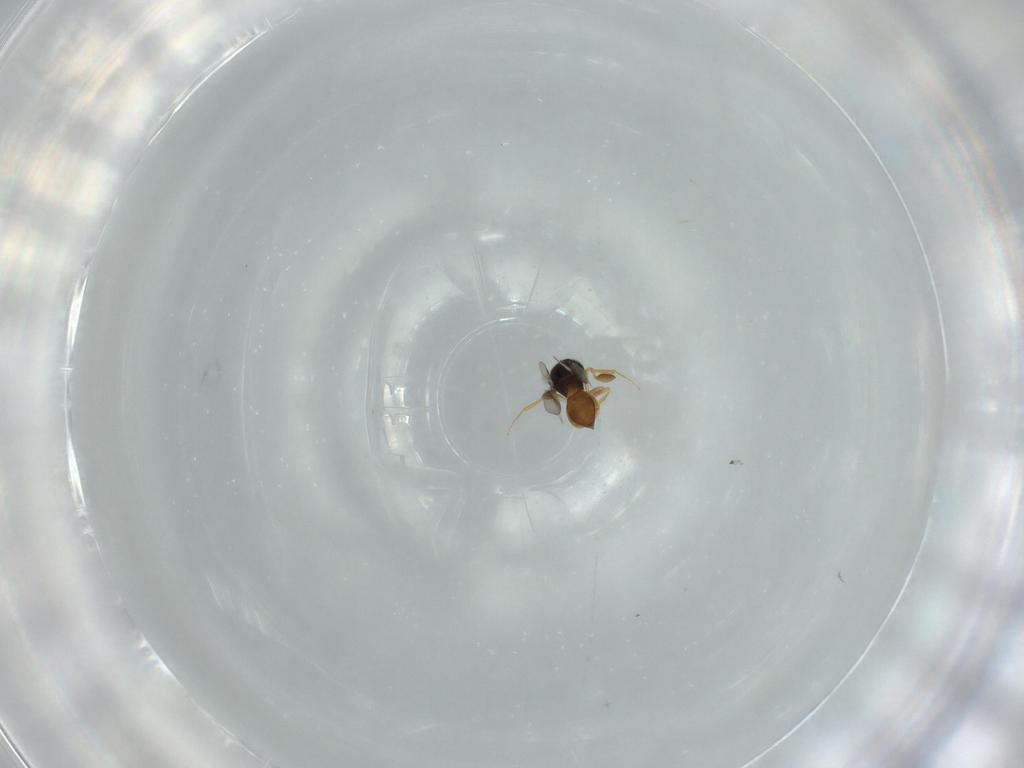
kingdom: Animalia
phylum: Arthropoda
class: Insecta
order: Hymenoptera
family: Scelionidae
